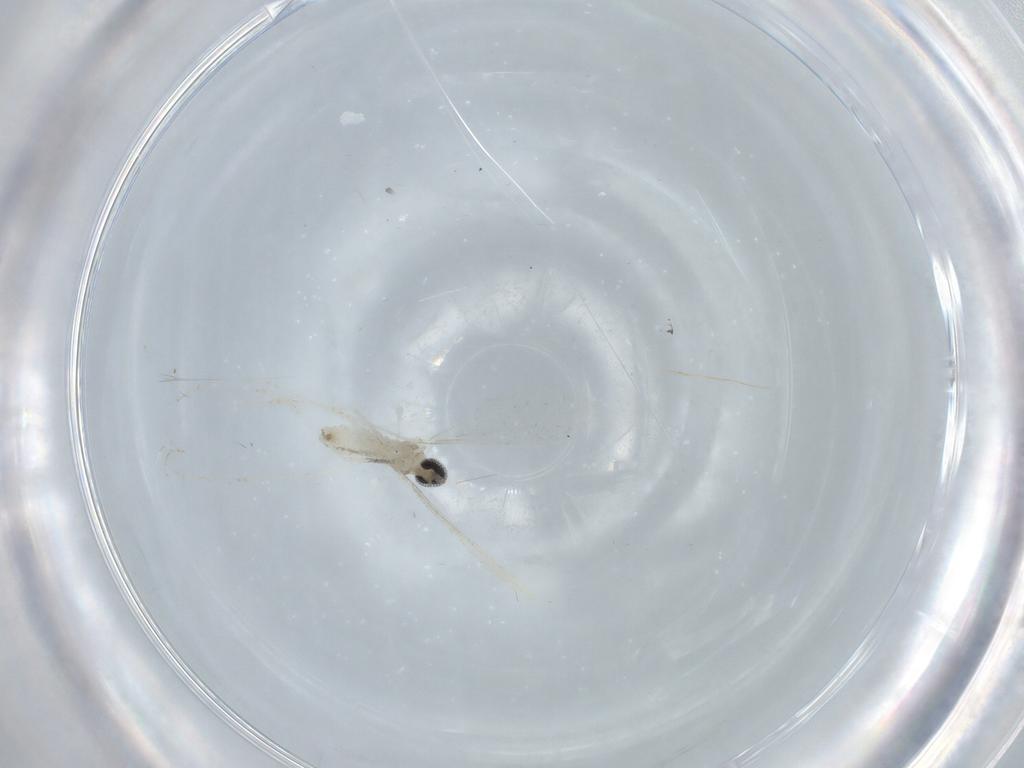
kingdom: Animalia
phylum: Arthropoda
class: Insecta
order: Diptera
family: Cecidomyiidae
